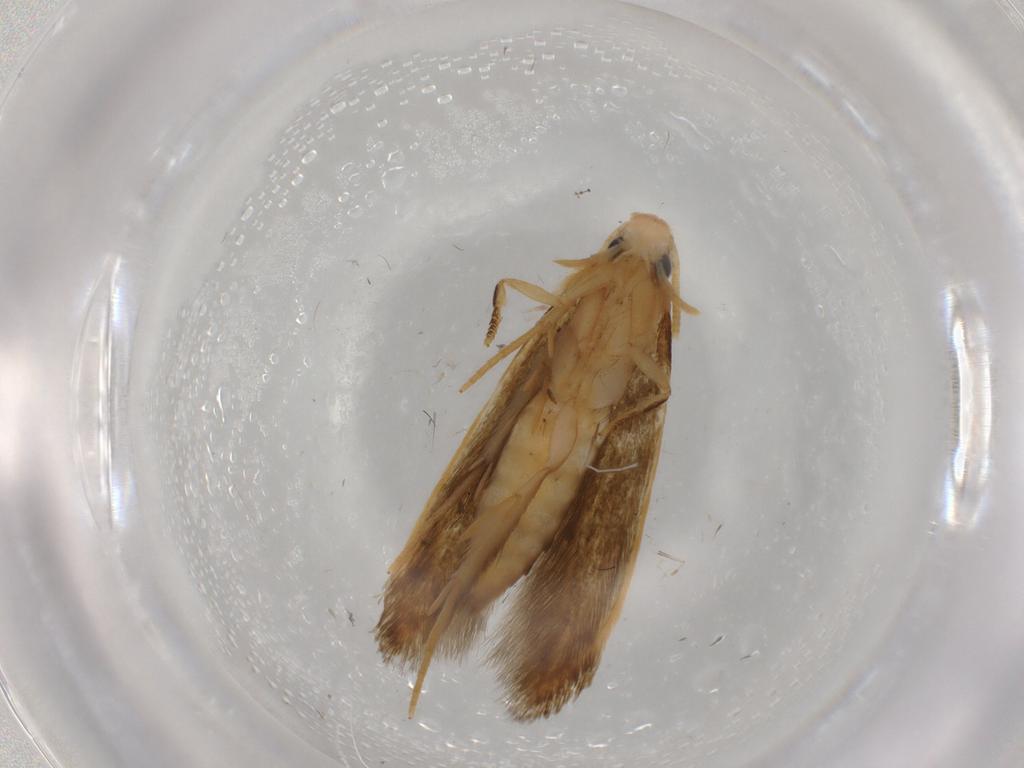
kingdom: Animalia
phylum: Arthropoda
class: Insecta
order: Lepidoptera
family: Tineidae
